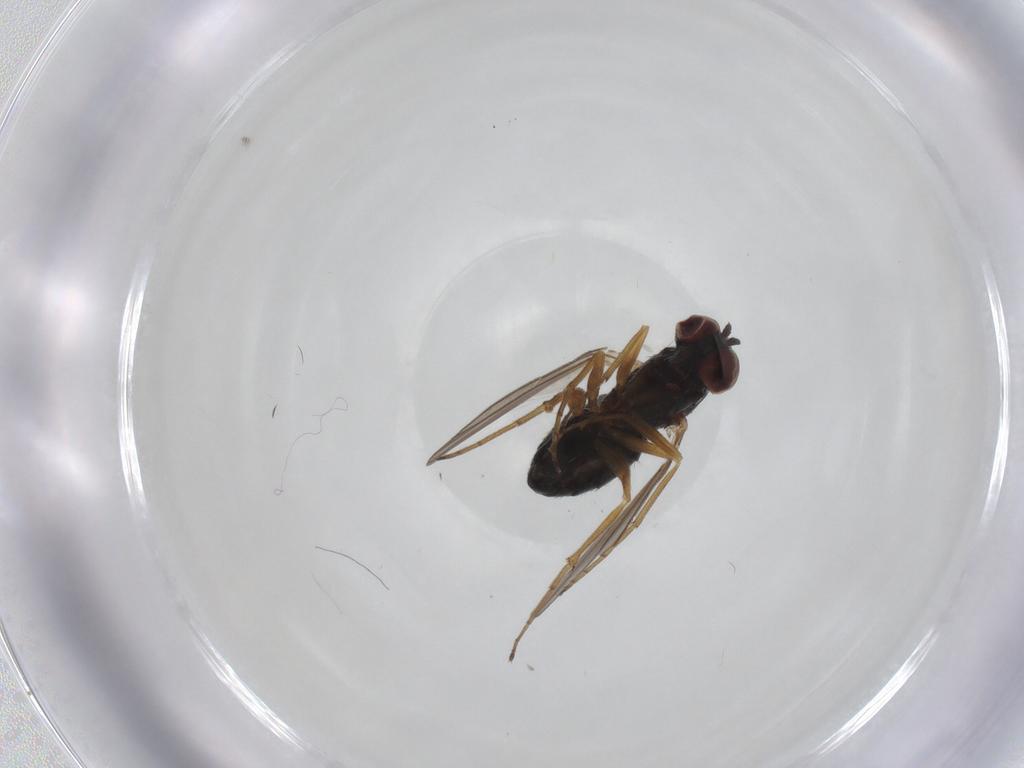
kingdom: Animalia
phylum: Arthropoda
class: Insecta
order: Diptera
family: Dolichopodidae
